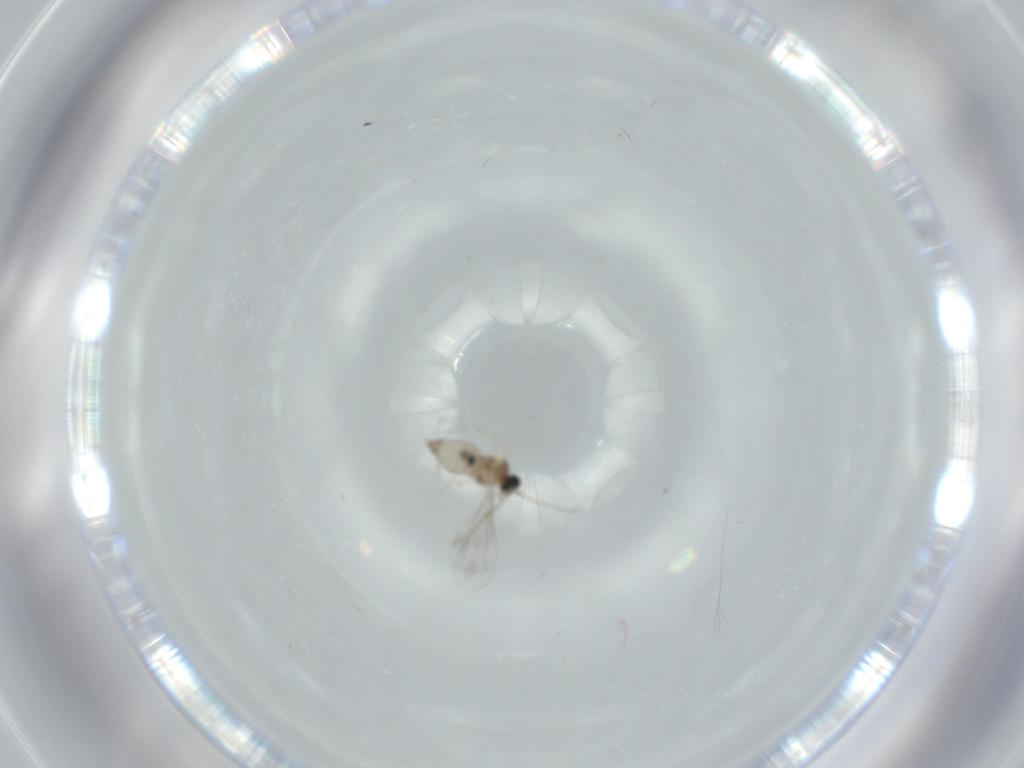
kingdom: Animalia
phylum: Arthropoda
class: Insecta
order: Diptera
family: Cecidomyiidae
